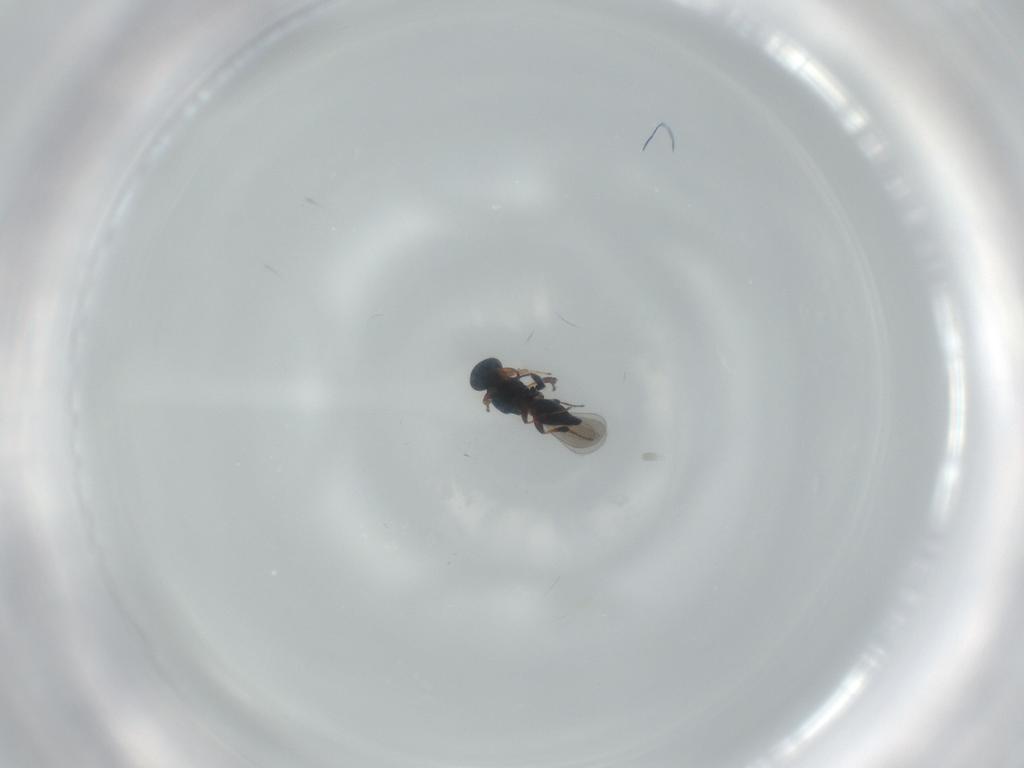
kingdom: Animalia
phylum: Arthropoda
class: Insecta
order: Hymenoptera
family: Platygastridae
